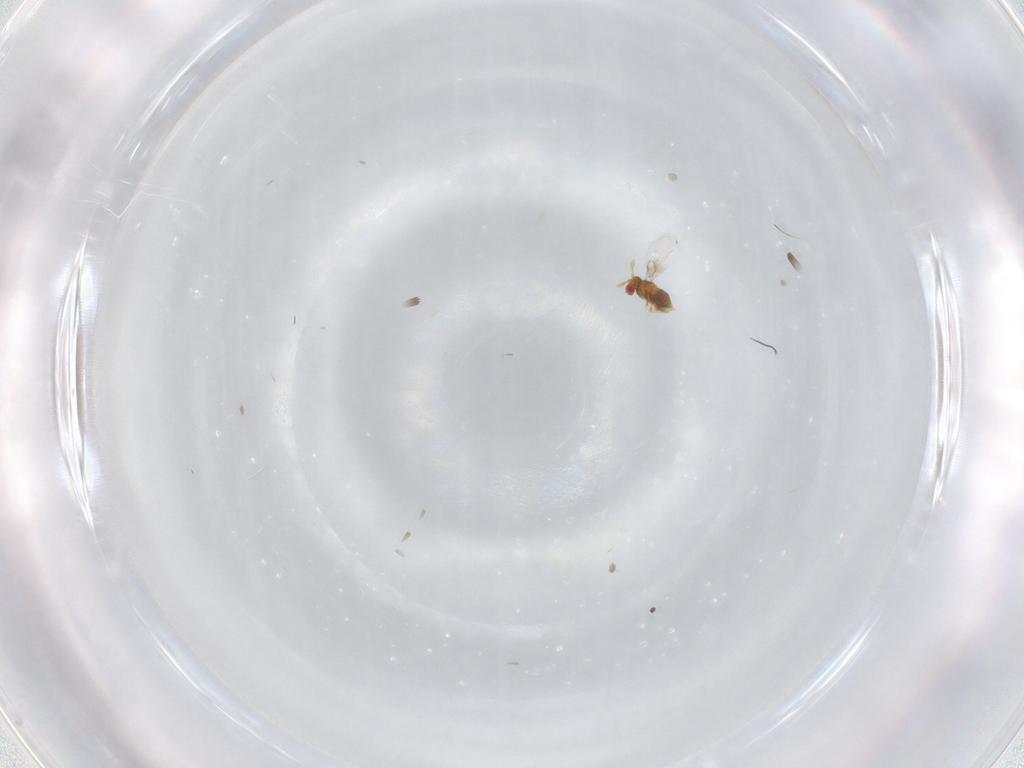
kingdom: Animalia
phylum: Arthropoda
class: Insecta
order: Hymenoptera
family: Trichogrammatidae
